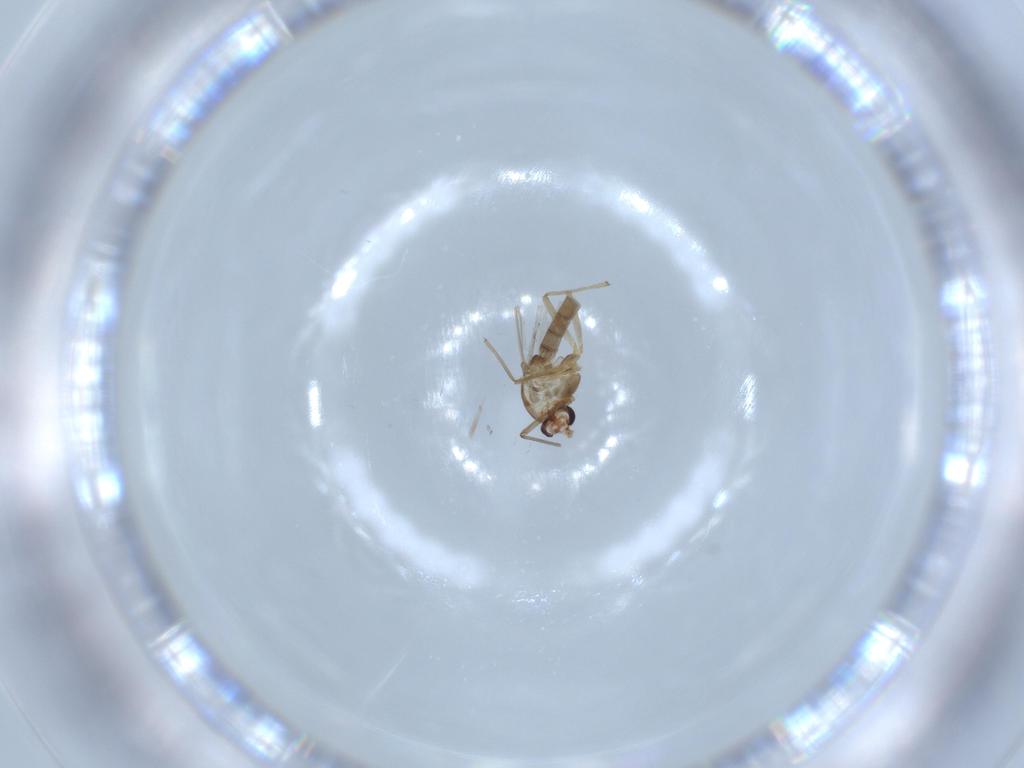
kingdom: Animalia
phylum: Arthropoda
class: Insecta
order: Diptera
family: Chironomidae
